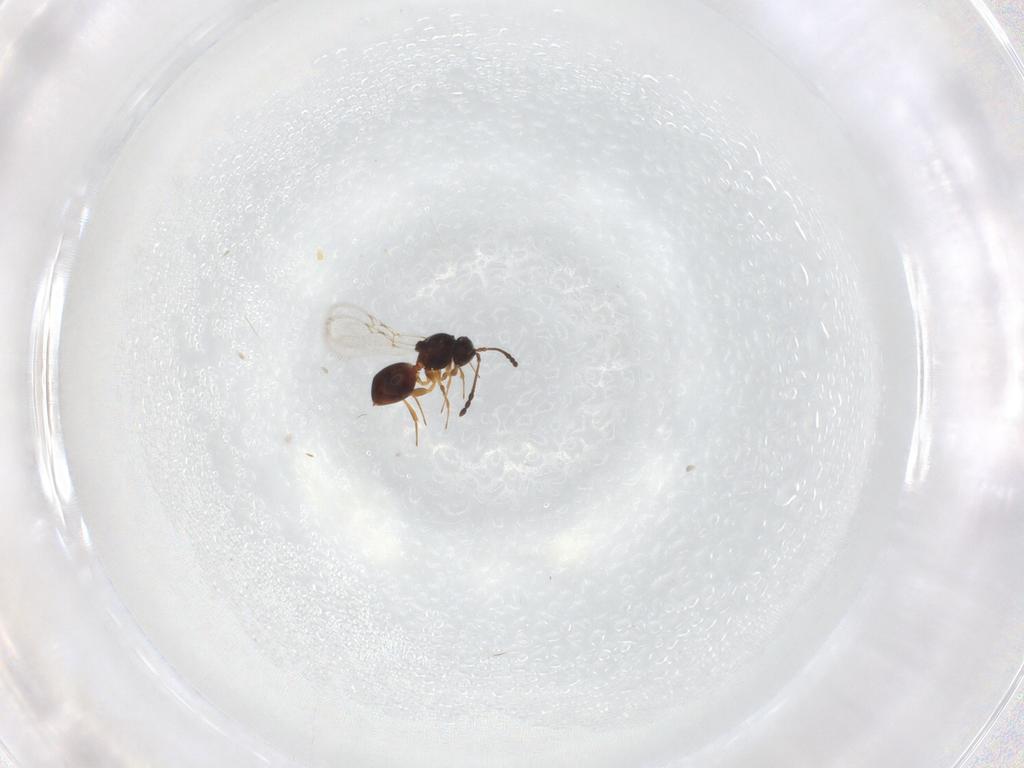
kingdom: Animalia
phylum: Arthropoda
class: Insecta
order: Hymenoptera
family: Figitidae
